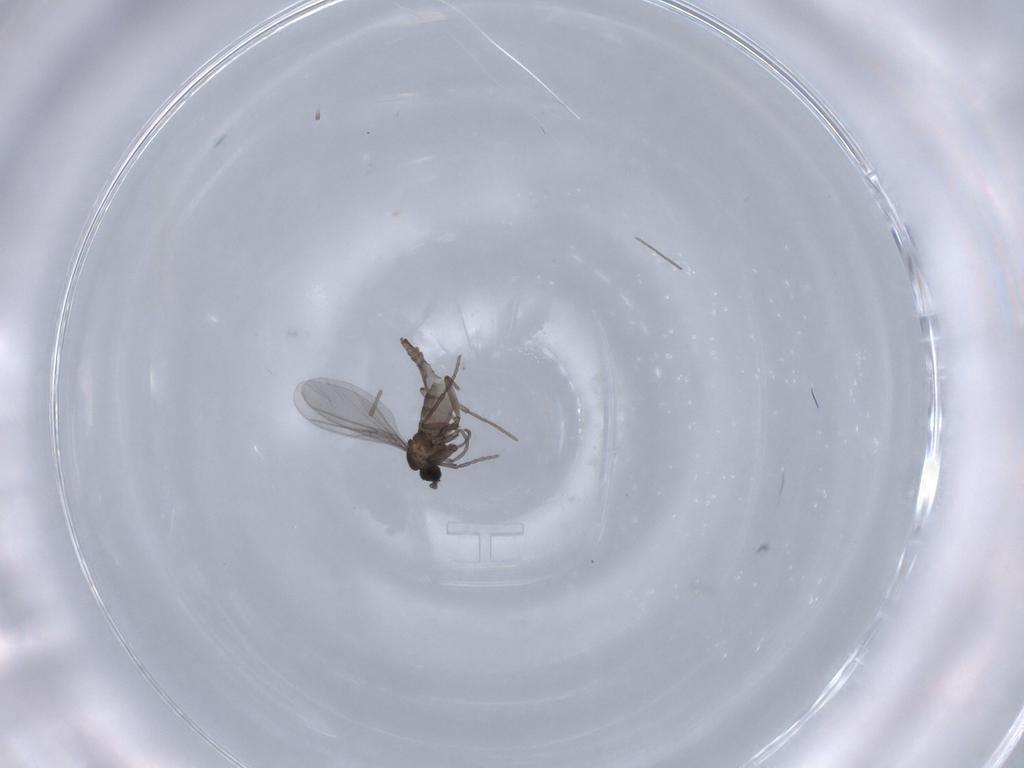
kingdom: Animalia
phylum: Arthropoda
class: Insecta
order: Diptera
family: Sciaridae
